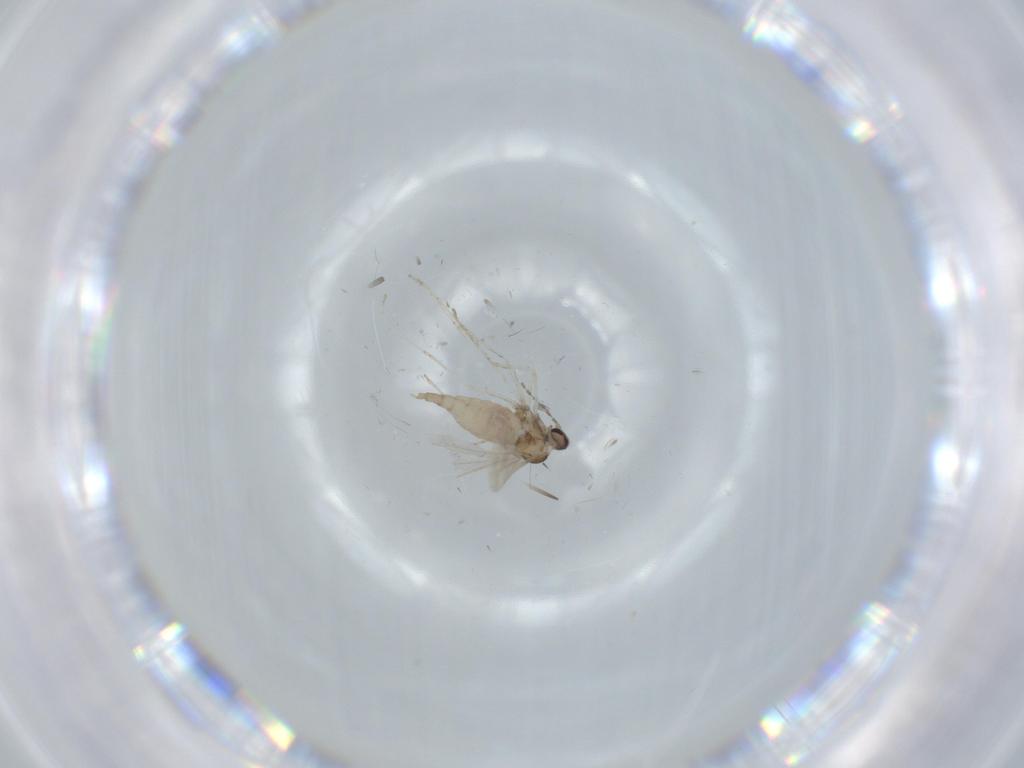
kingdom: Animalia
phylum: Arthropoda
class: Insecta
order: Diptera
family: Cecidomyiidae
